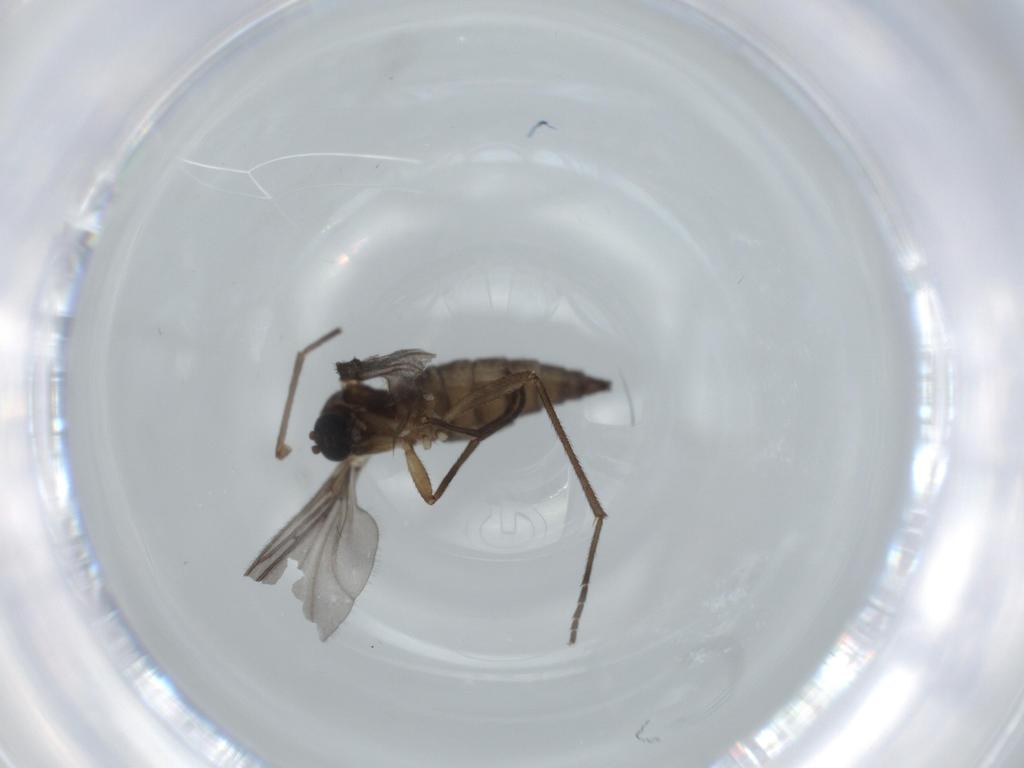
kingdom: Animalia
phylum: Arthropoda
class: Insecta
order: Diptera
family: Sciaridae
